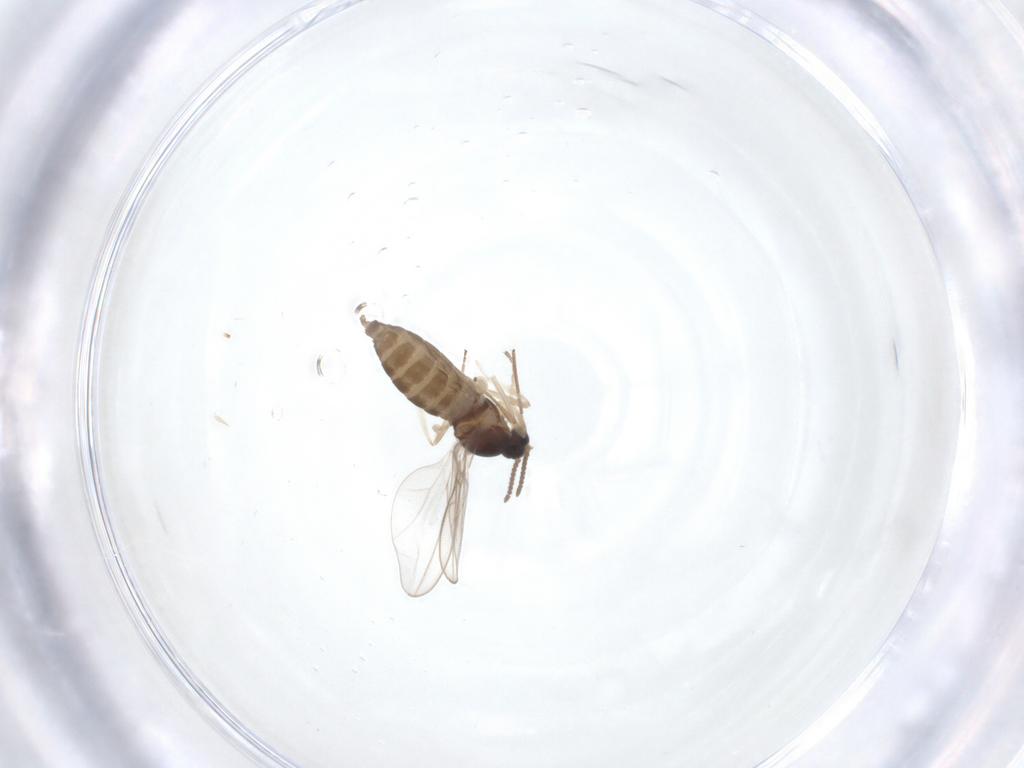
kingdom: Animalia
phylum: Arthropoda
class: Insecta
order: Diptera
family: Cecidomyiidae
